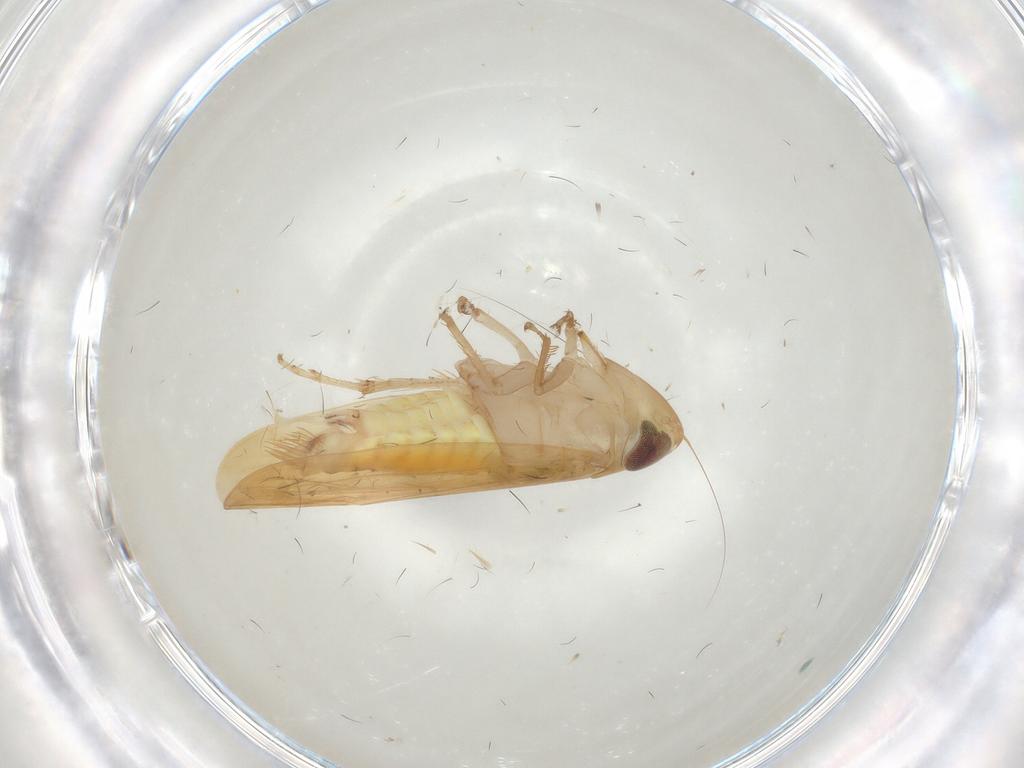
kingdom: Animalia
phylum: Arthropoda
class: Insecta
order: Hemiptera
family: Cicadellidae
